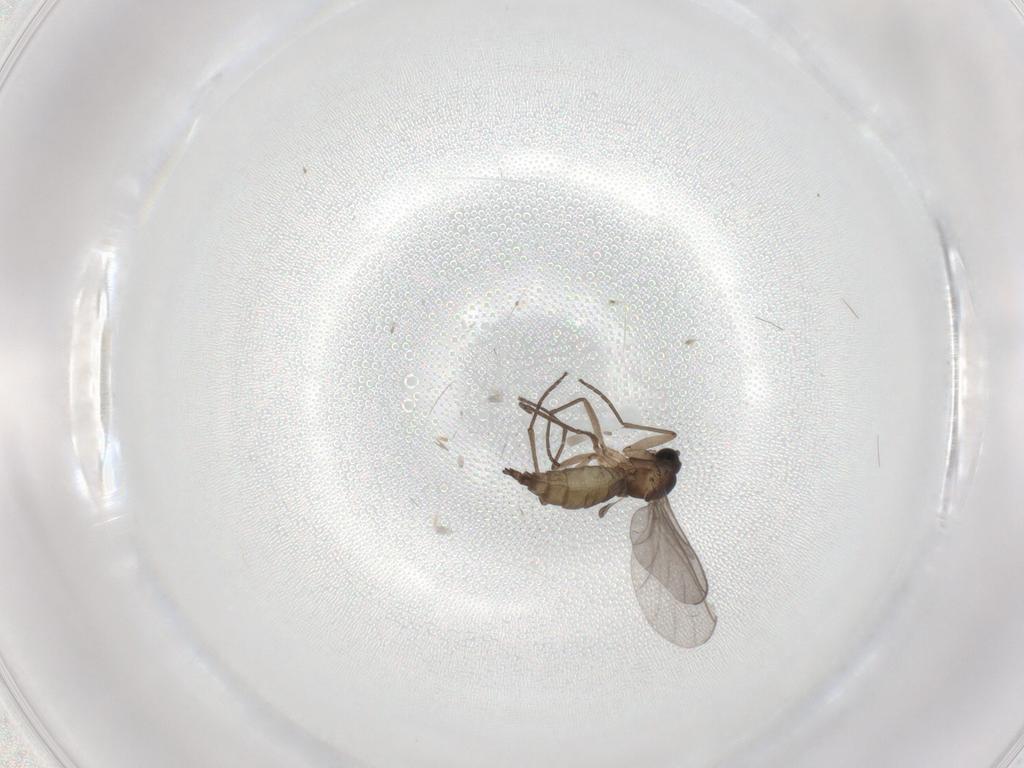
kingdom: Animalia
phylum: Arthropoda
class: Insecta
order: Diptera
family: Sciaridae
